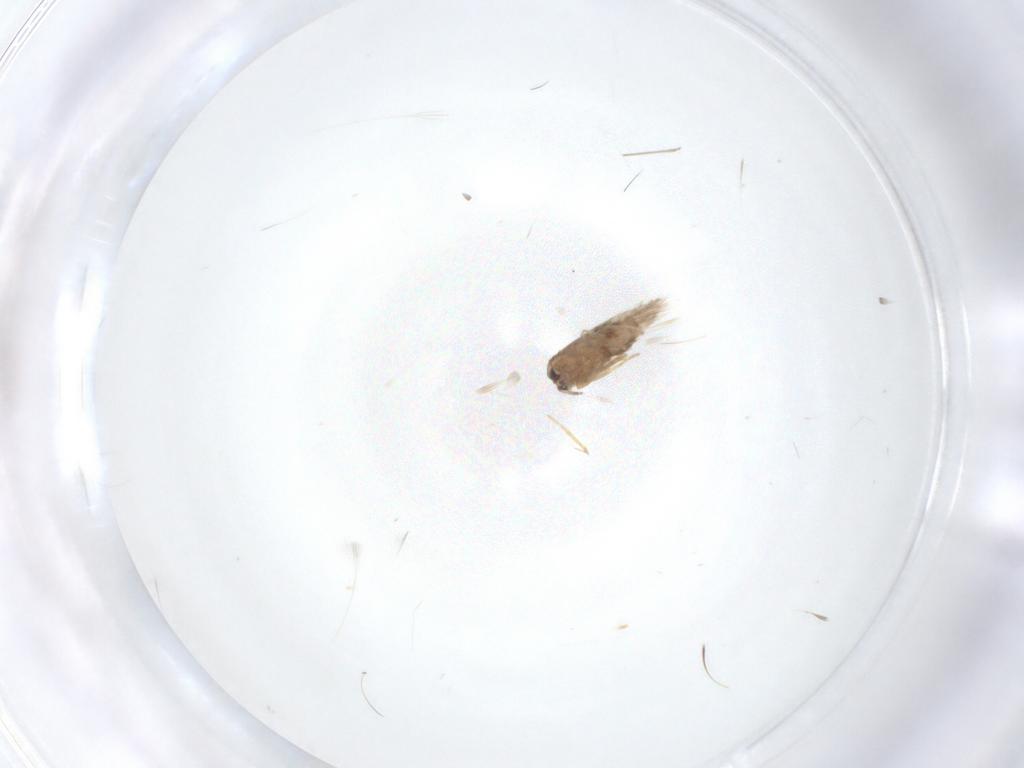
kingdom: Animalia
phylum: Arthropoda
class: Insecta
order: Lepidoptera
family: Nepticulidae
